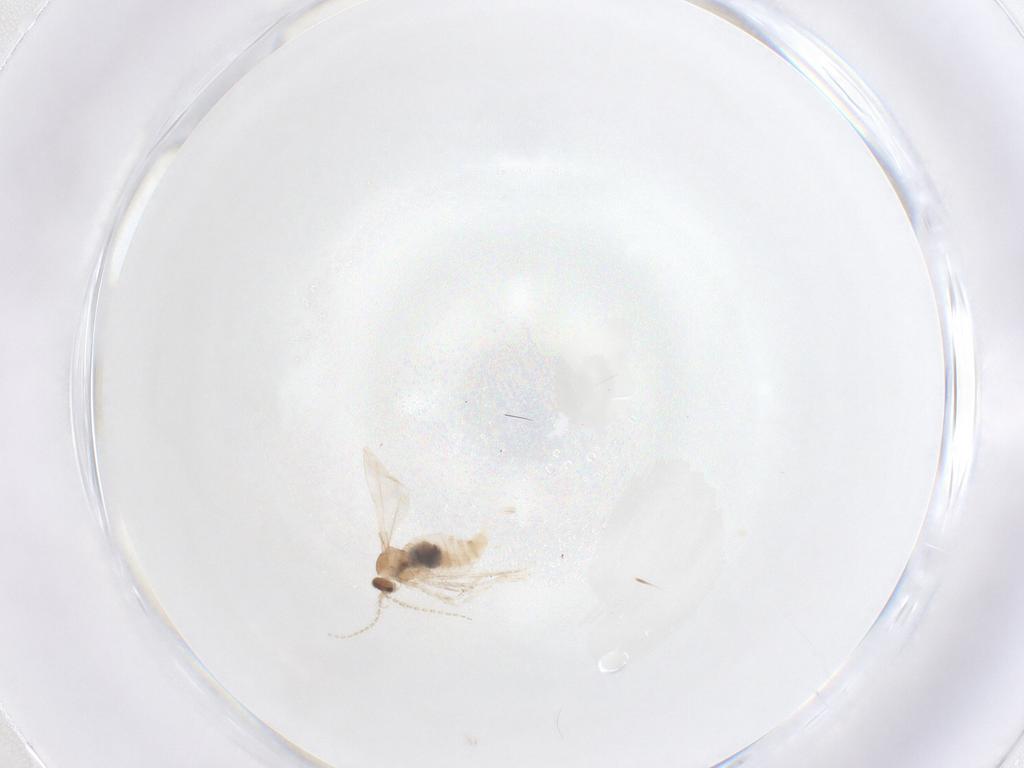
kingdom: Animalia
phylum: Arthropoda
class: Insecta
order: Diptera
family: Cecidomyiidae
